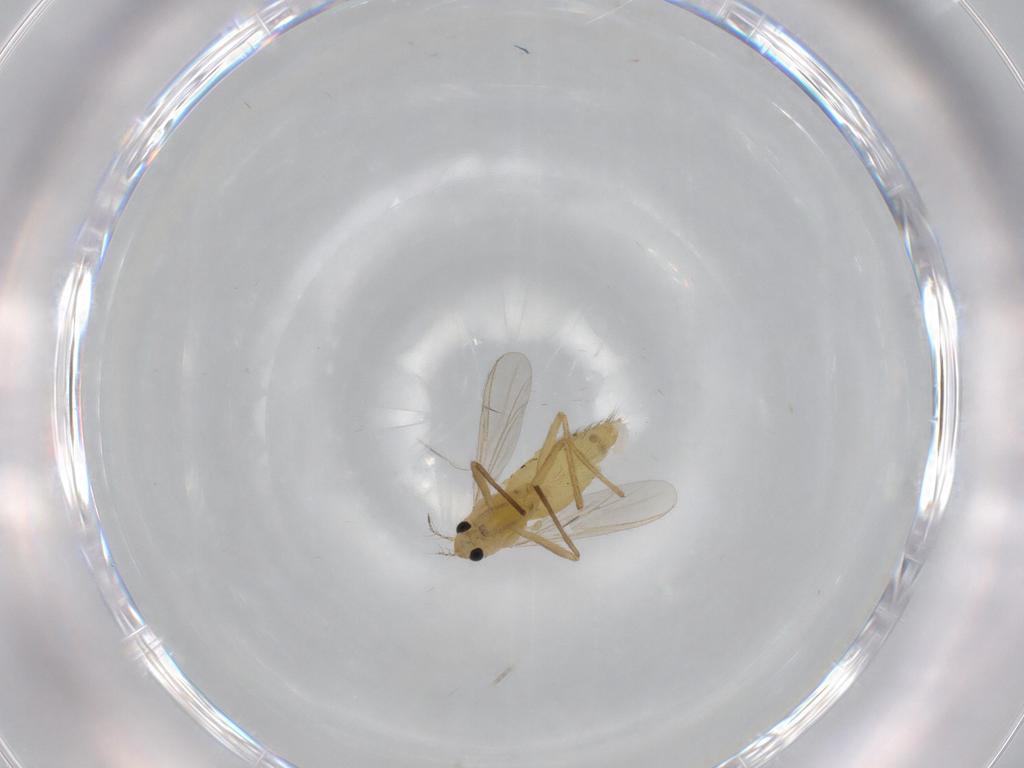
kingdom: Animalia
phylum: Arthropoda
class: Insecta
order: Diptera
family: Chironomidae
